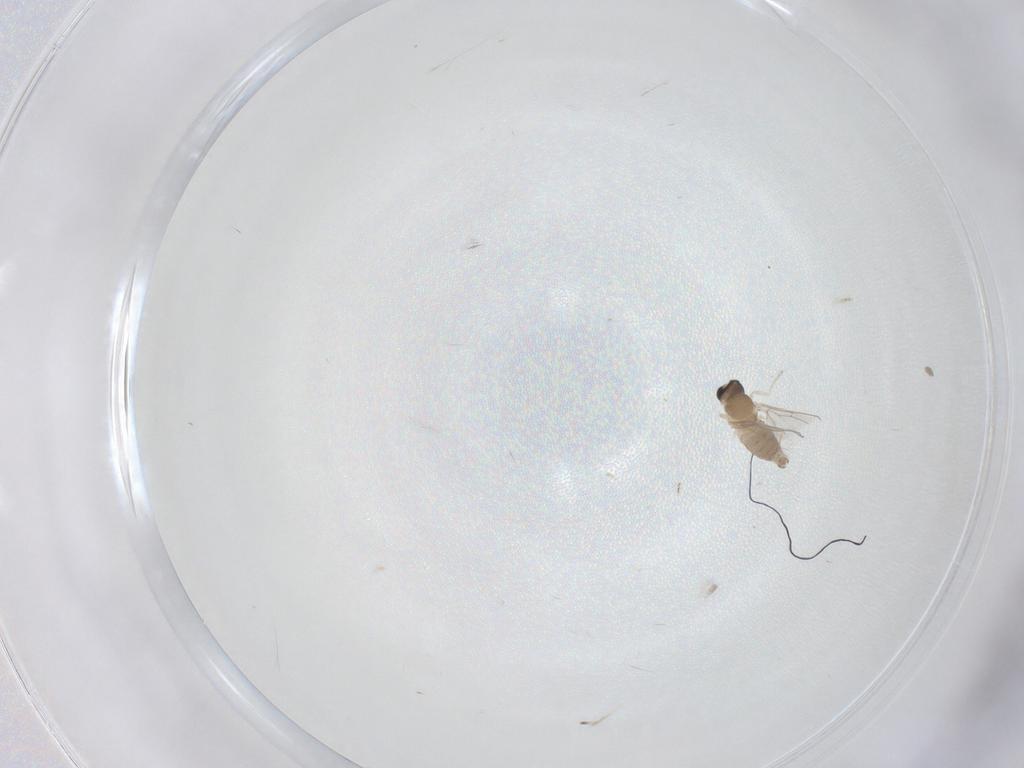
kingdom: Animalia
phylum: Arthropoda
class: Insecta
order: Diptera
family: Cecidomyiidae
